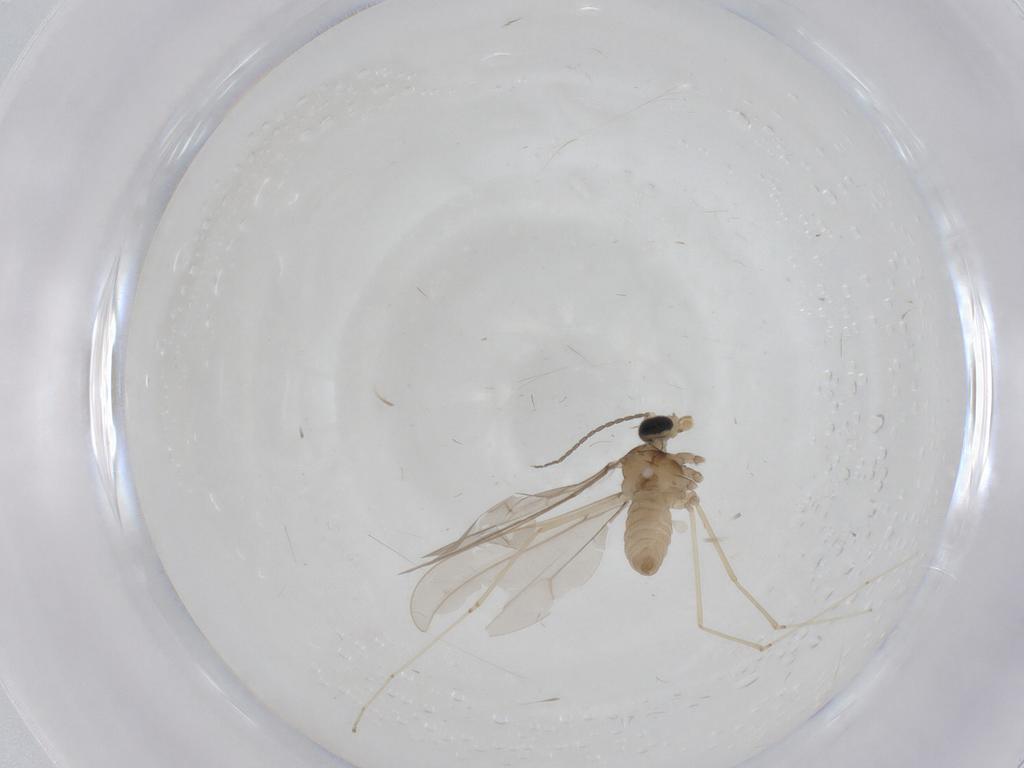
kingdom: Animalia
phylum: Arthropoda
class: Insecta
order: Diptera
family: Cecidomyiidae
